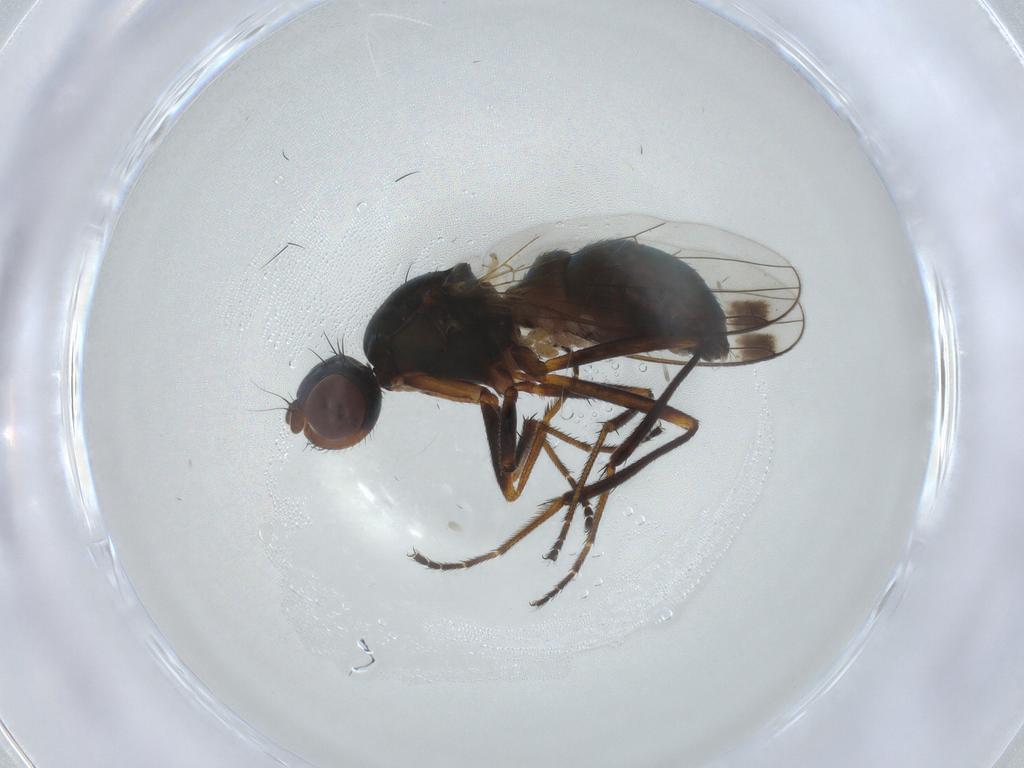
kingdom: Animalia
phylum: Arthropoda
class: Insecta
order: Diptera
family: Sepsidae
